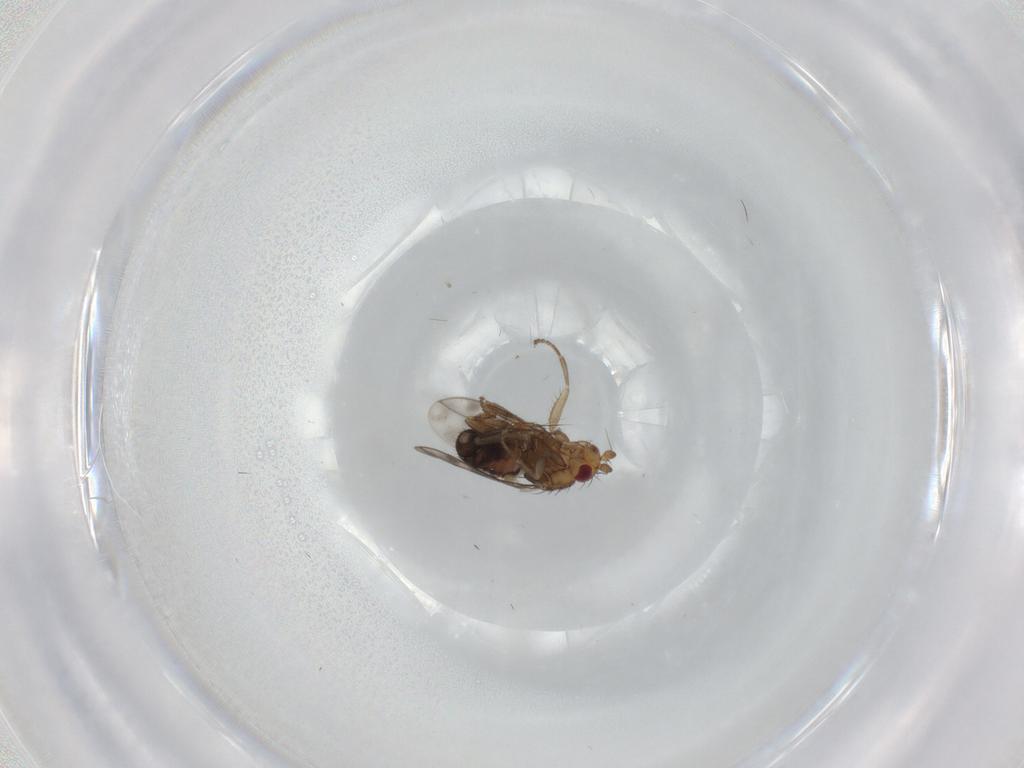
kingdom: Animalia
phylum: Arthropoda
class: Insecta
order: Diptera
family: Sphaeroceridae
